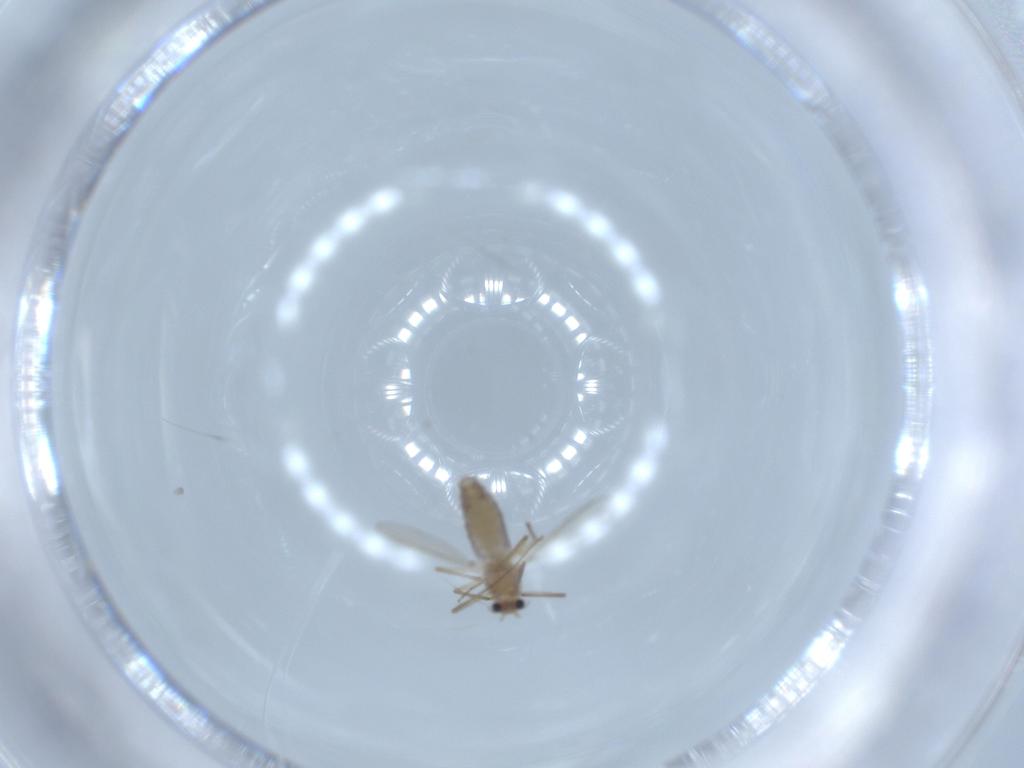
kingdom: Animalia
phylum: Arthropoda
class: Insecta
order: Diptera
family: Chironomidae
